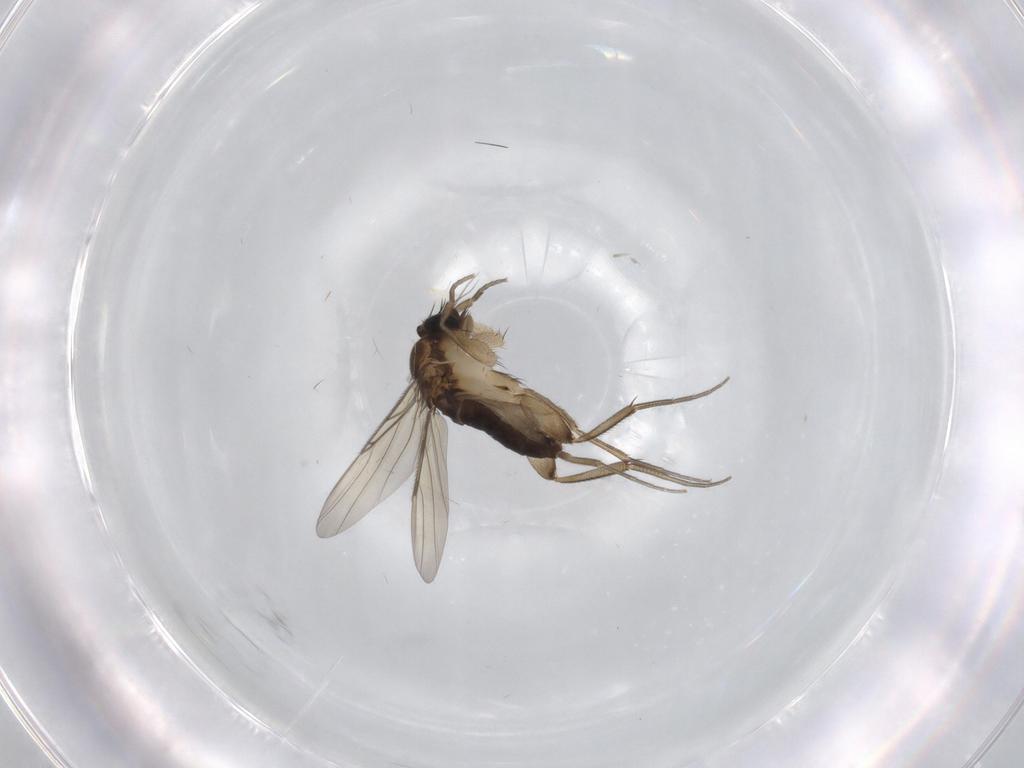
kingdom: Animalia
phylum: Arthropoda
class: Insecta
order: Diptera
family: Phoridae
